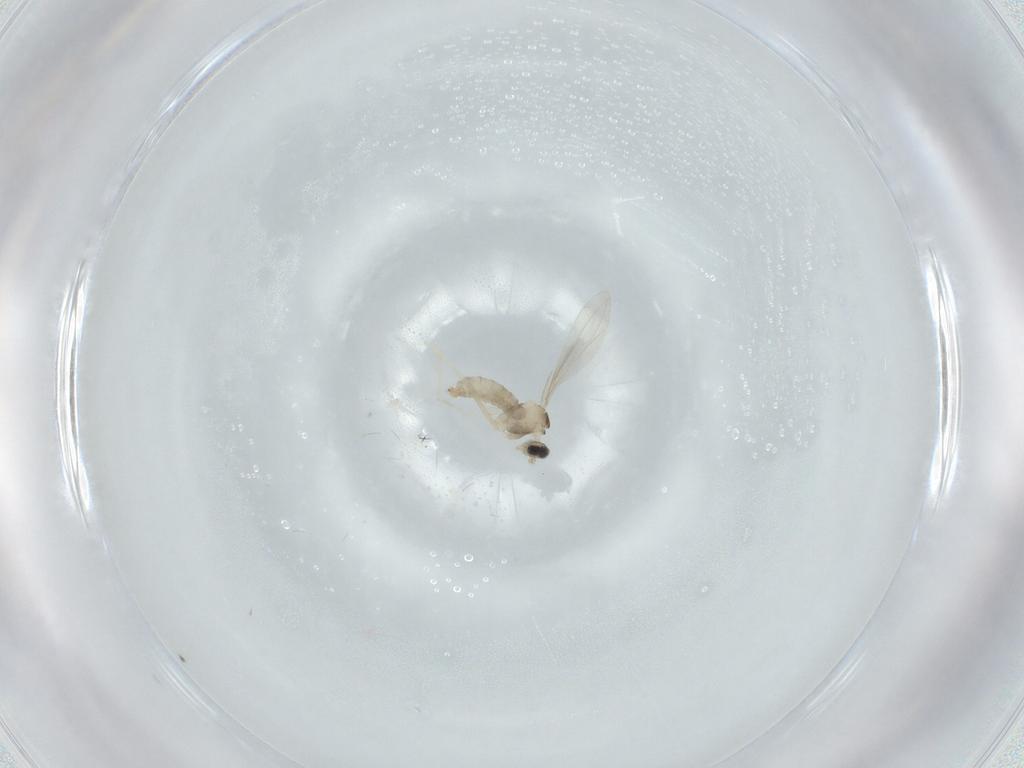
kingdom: Animalia
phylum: Arthropoda
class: Insecta
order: Diptera
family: Cecidomyiidae
